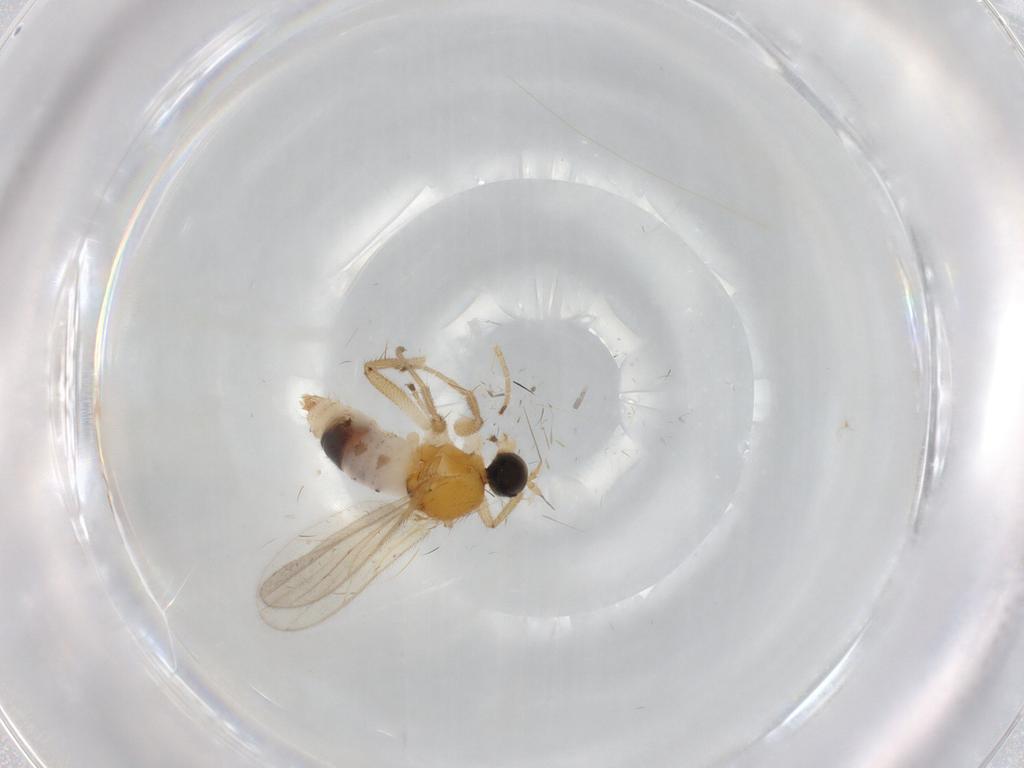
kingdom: Animalia
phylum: Arthropoda
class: Insecta
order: Diptera
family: Hybotidae
